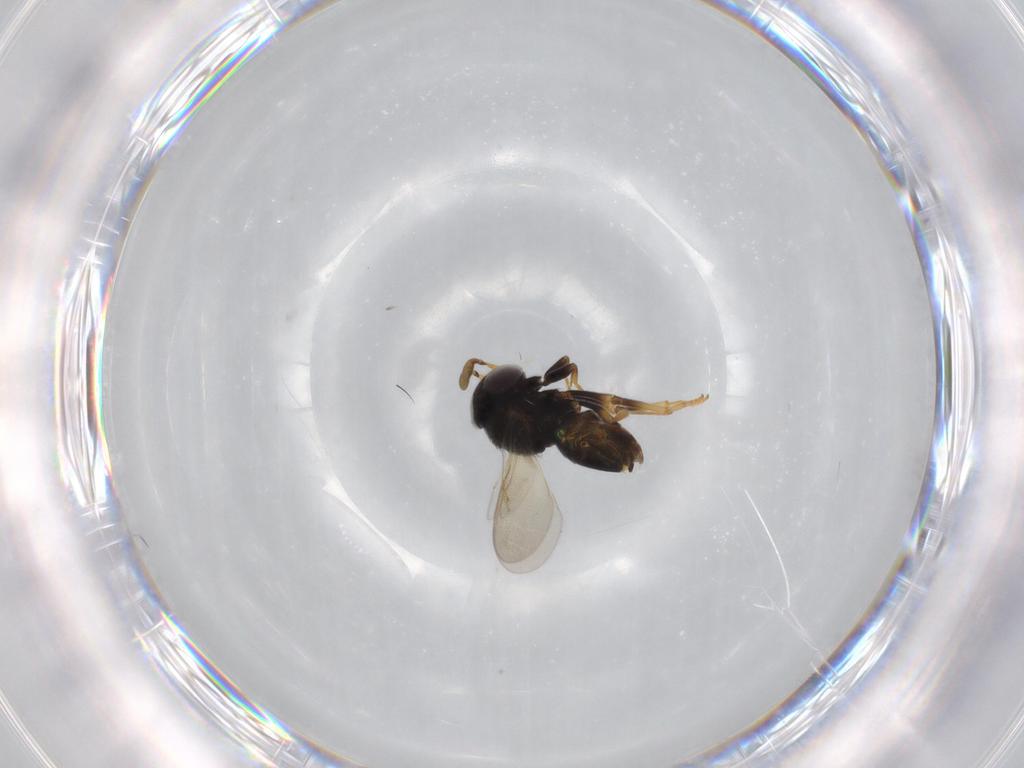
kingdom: Animalia
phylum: Arthropoda
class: Insecta
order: Hymenoptera
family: Encyrtidae
